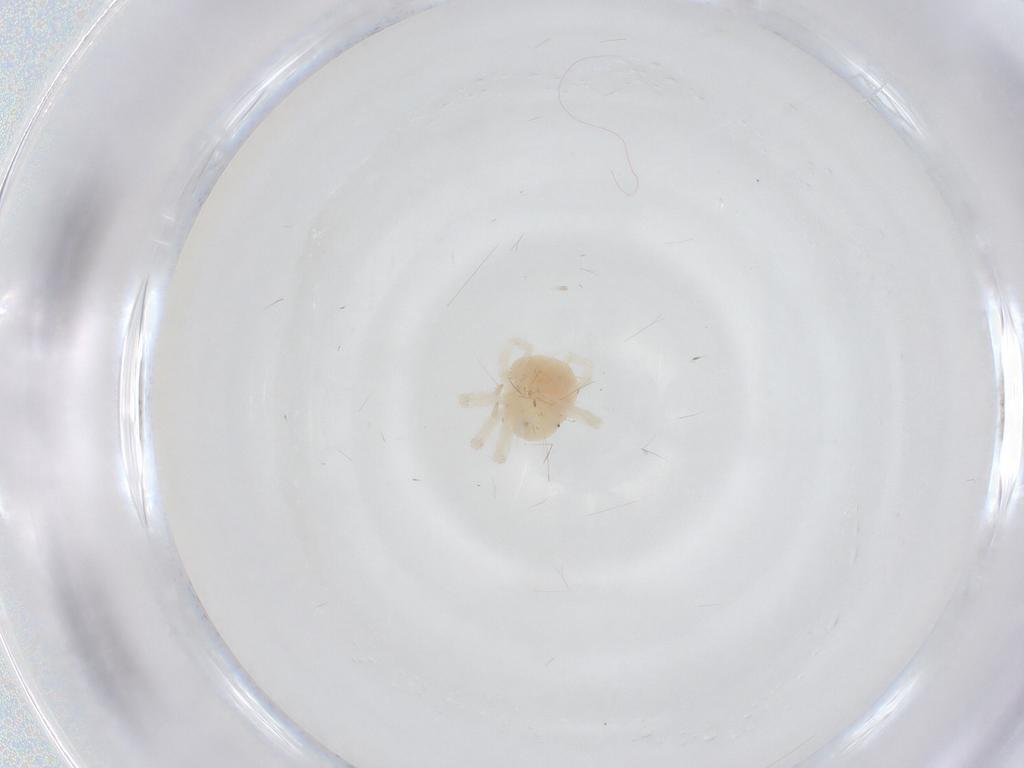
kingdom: Animalia
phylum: Arthropoda
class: Arachnida
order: Trombidiformes
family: Anystidae
